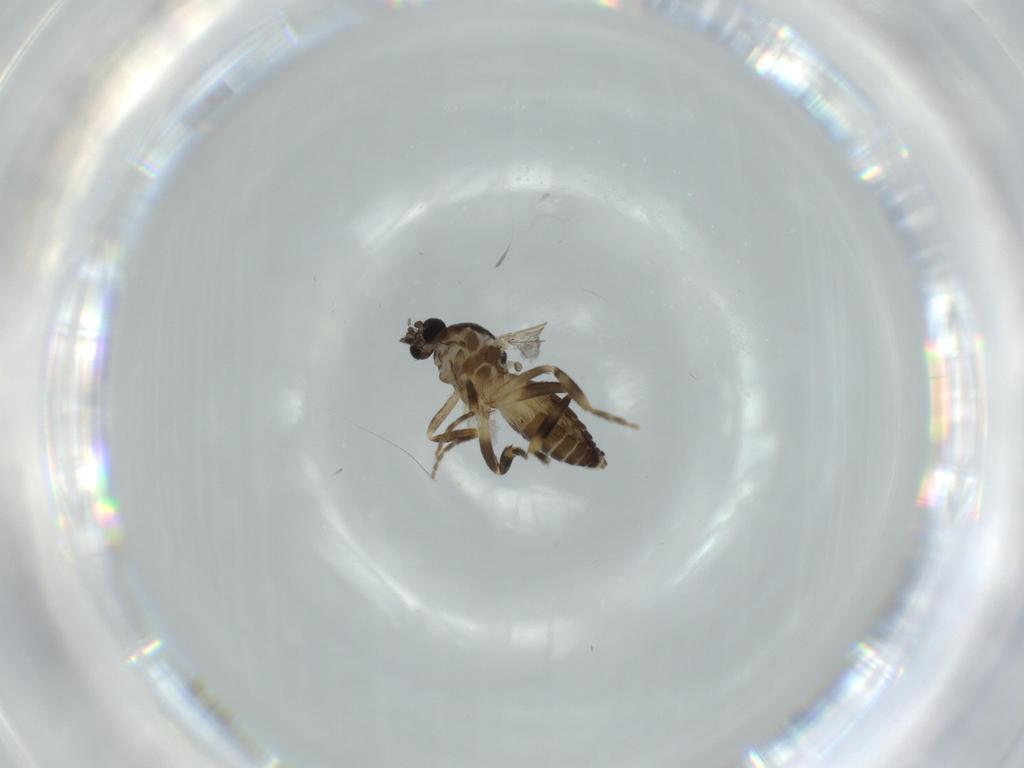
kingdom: Animalia
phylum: Arthropoda
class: Insecta
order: Diptera
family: Ceratopogonidae
